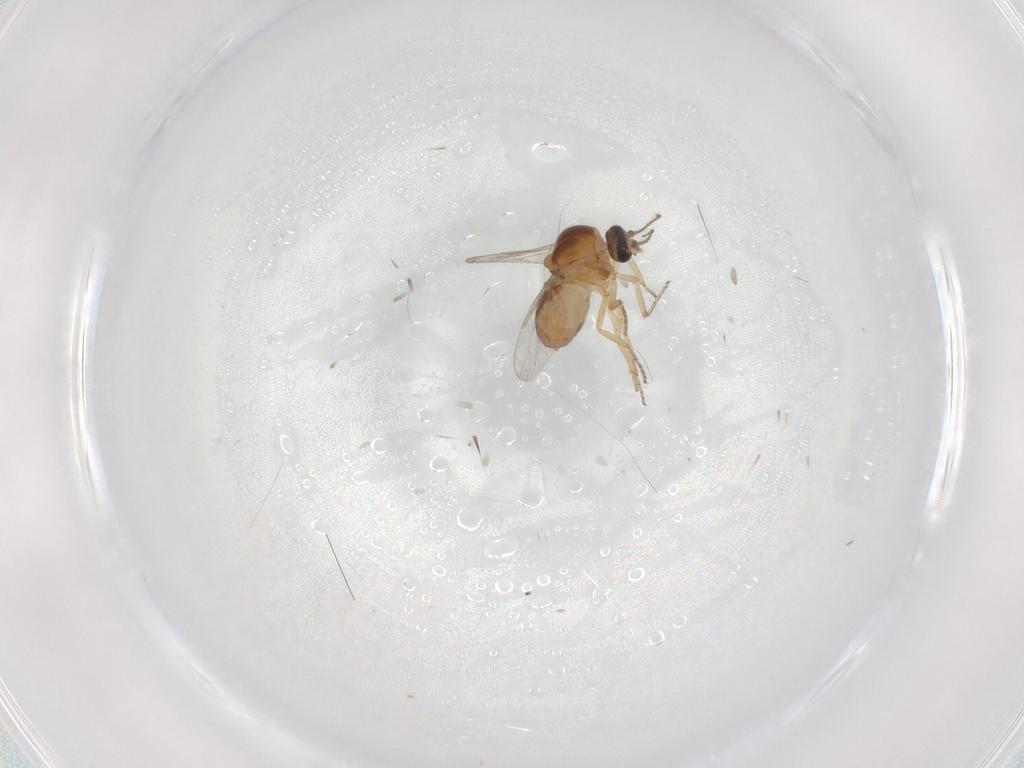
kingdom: Animalia
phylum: Arthropoda
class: Insecta
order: Diptera
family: Ceratopogonidae
